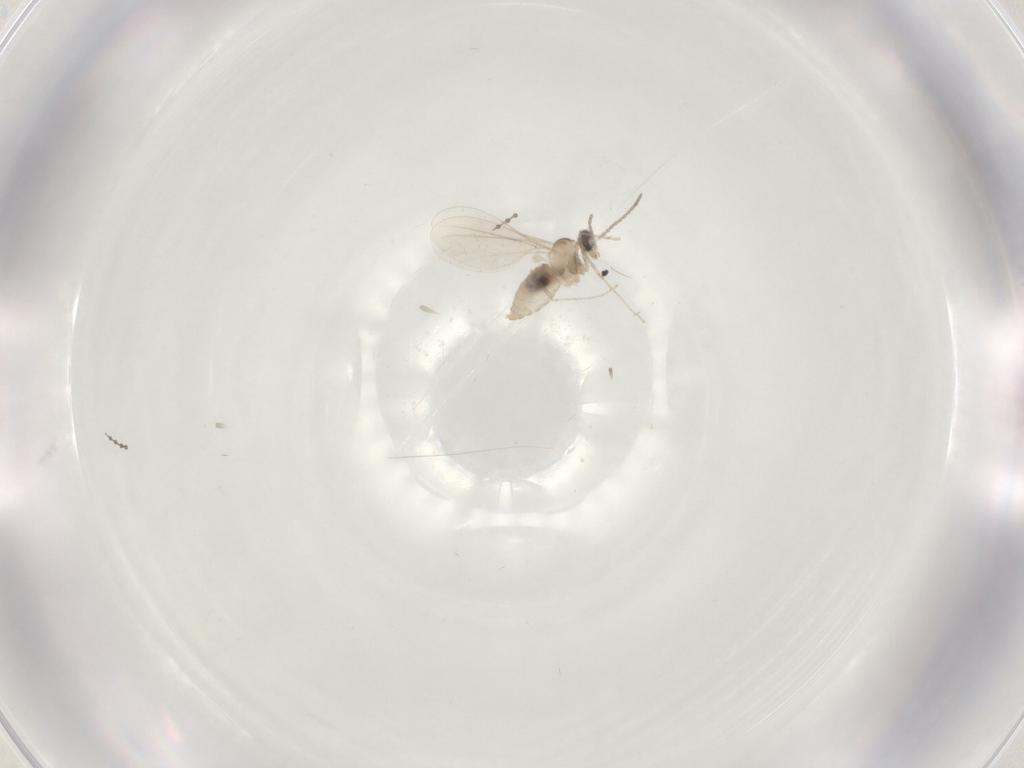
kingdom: Animalia
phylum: Arthropoda
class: Insecta
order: Diptera
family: Cecidomyiidae
